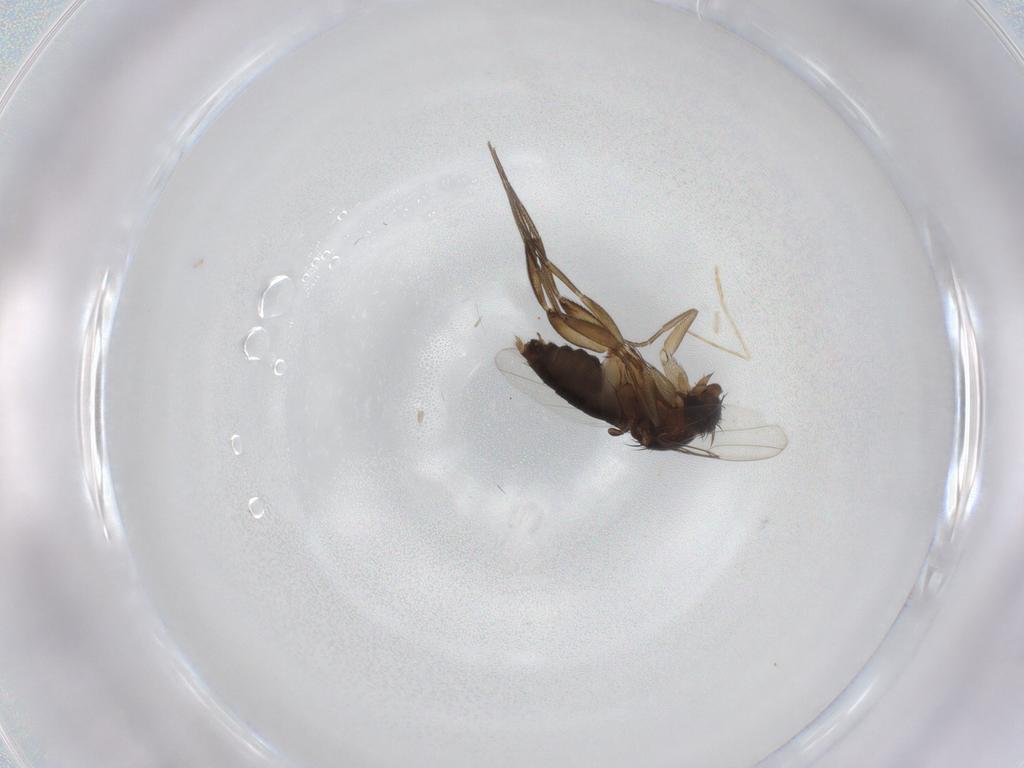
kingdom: Animalia
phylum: Arthropoda
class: Insecta
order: Diptera
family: Phoridae
